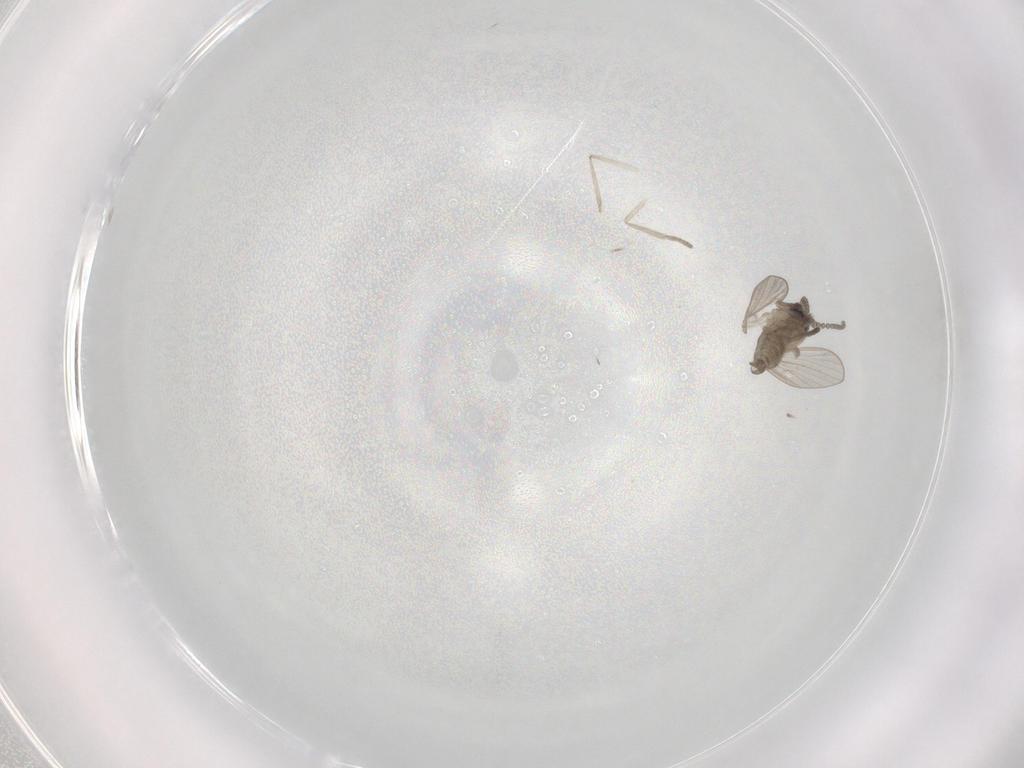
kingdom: Animalia
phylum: Arthropoda
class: Insecta
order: Diptera
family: Psychodidae
